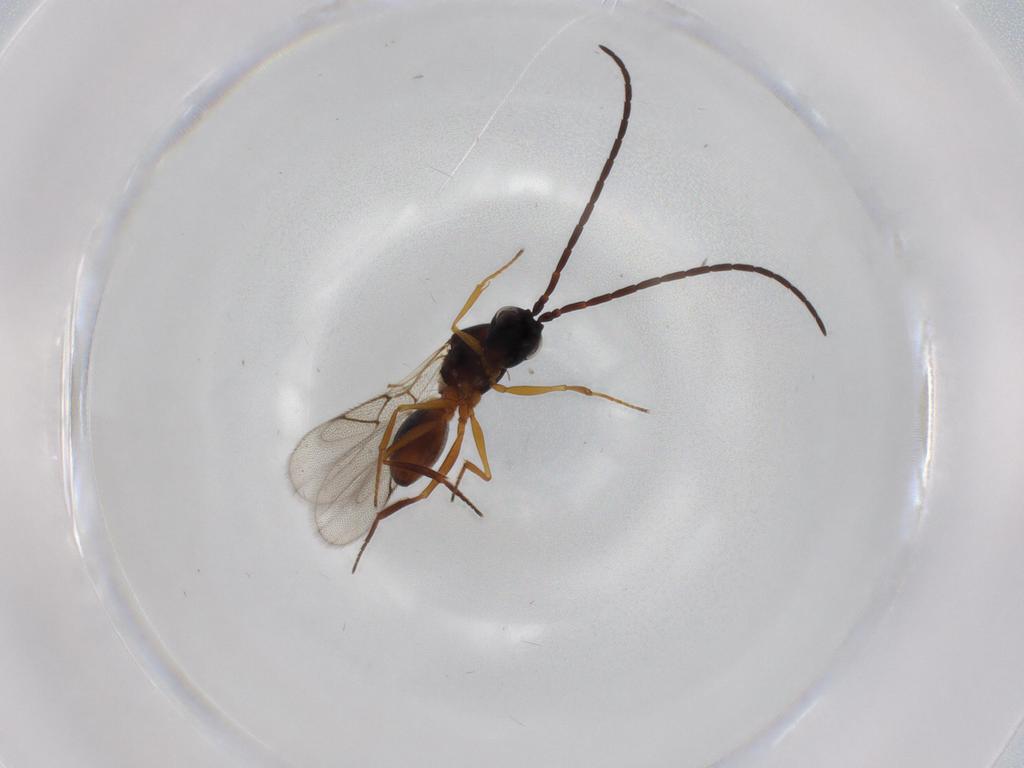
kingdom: Animalia
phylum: Arthropoda
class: Insecta
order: Hymenoptera
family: Figitidae
